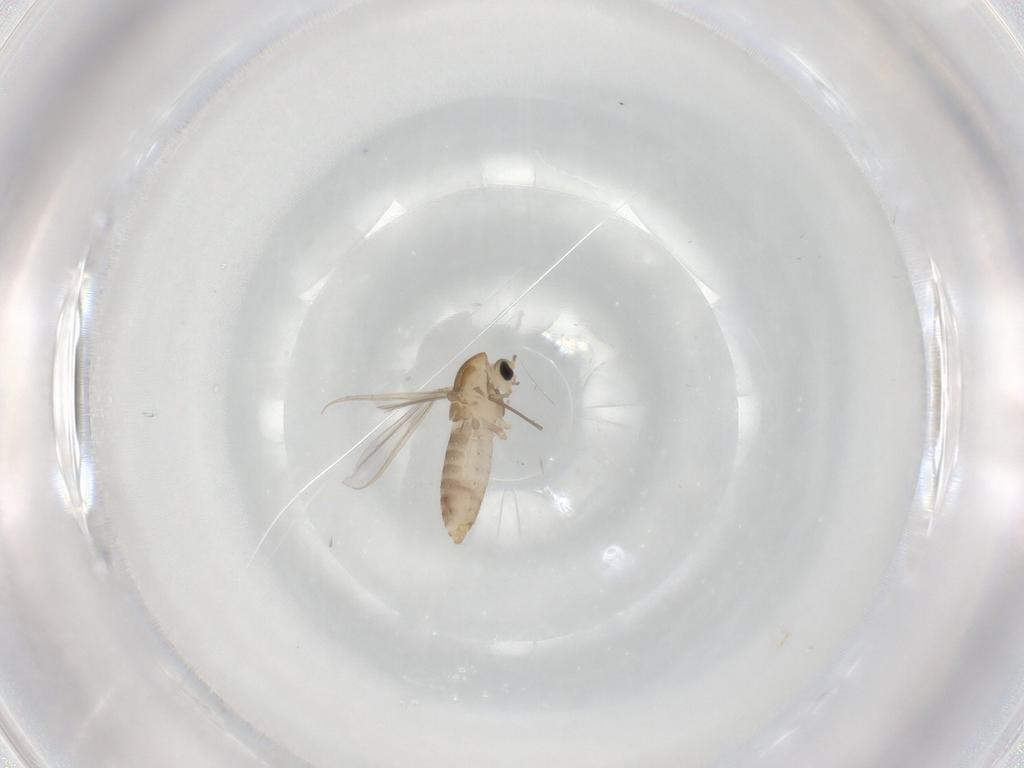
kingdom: Animalia
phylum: Arthropoda
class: Insecta
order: Diptera
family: Chironomidae
